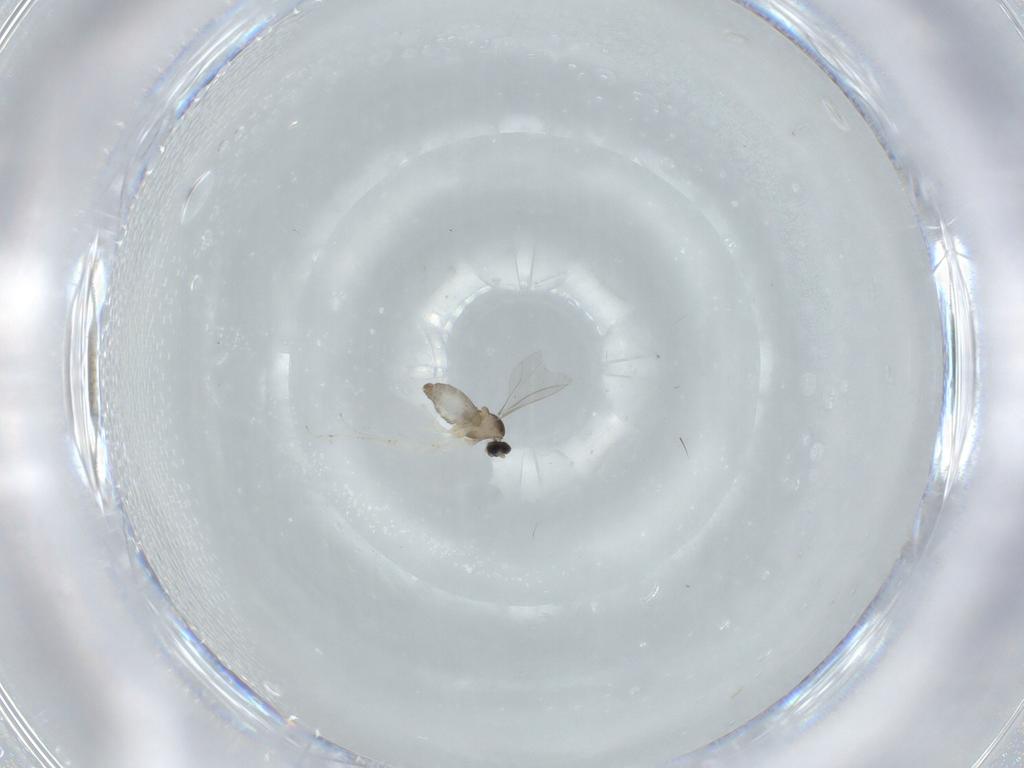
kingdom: Animalia
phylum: Arthropoda
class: Insecta
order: Diptera
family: Cecidomyiidae
